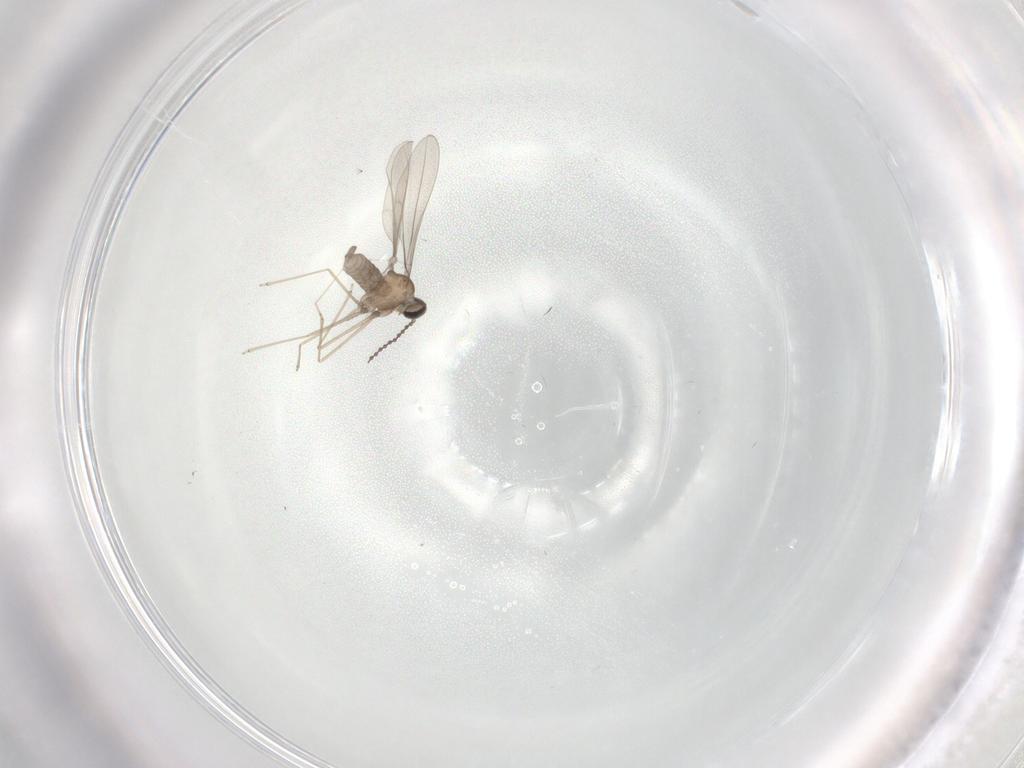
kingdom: Animalia
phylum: Arthropoda
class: Insecta
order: Diptera
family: Cecidomyiidae
